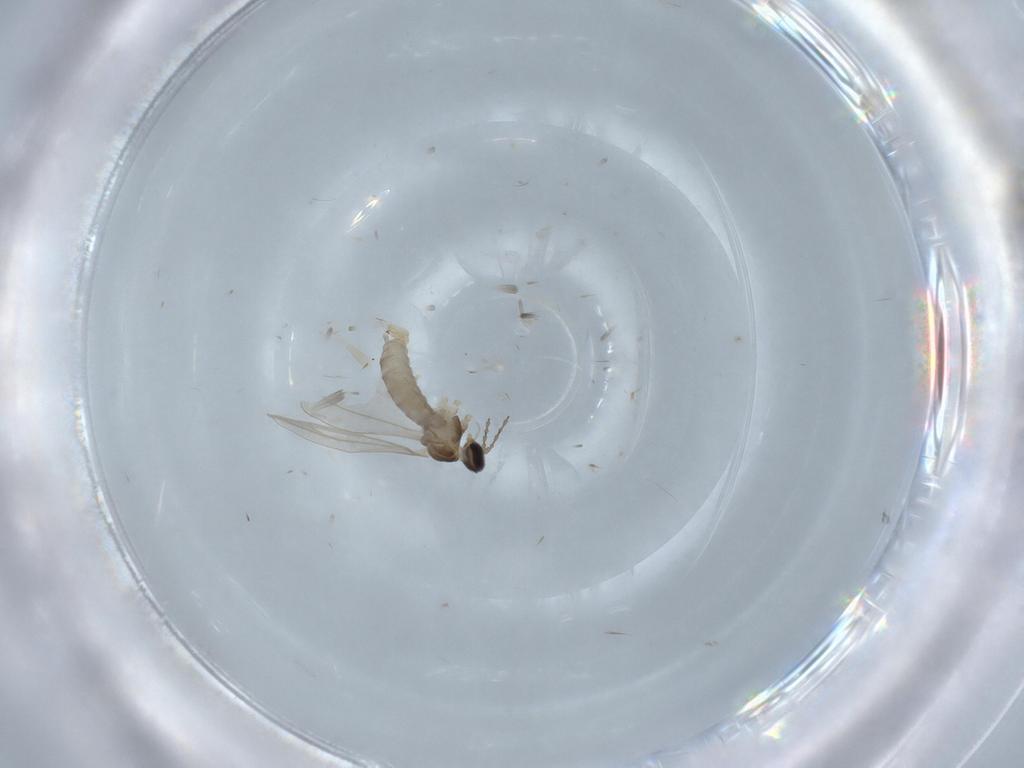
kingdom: Animalia
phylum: Arthropoda
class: Insecta
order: Diptera
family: Cecidomyiidae
